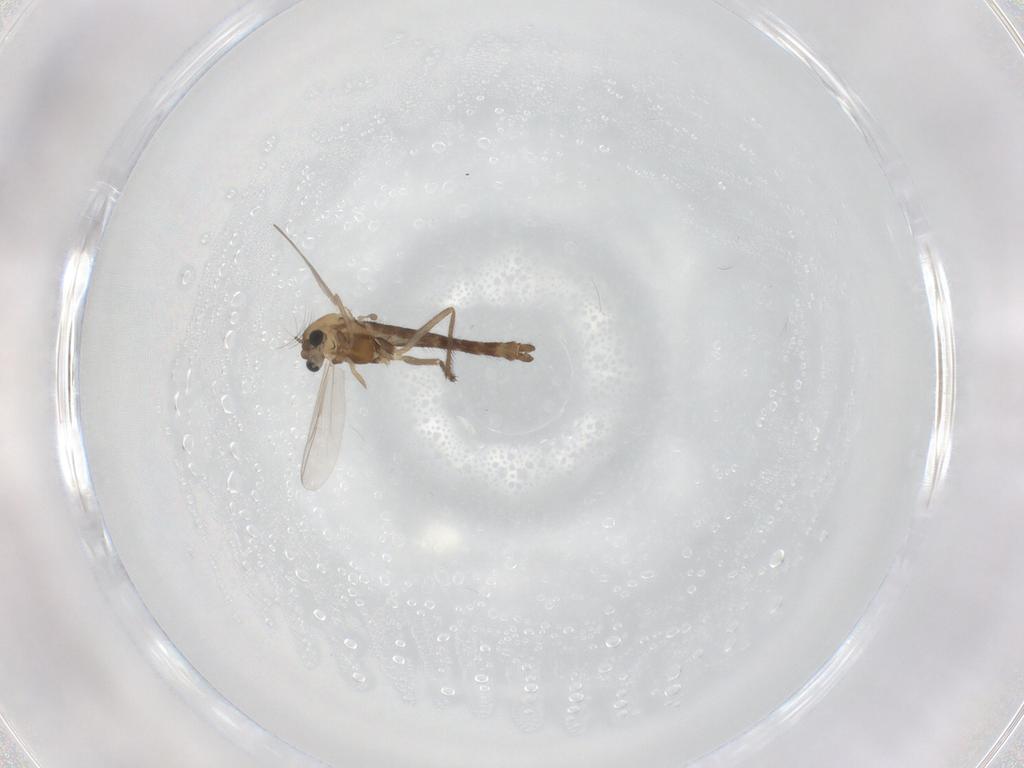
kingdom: Animalia
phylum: Arthropoda
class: Insecta
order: Diptera
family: Chironomidae
